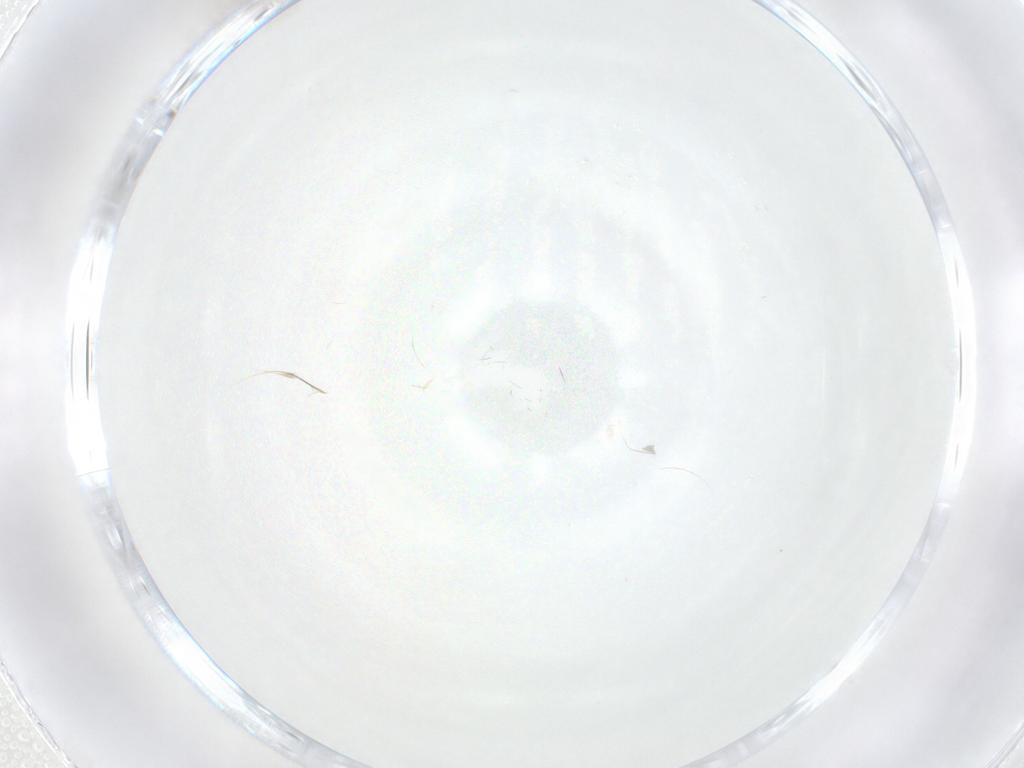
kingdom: Animalia
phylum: Arthropoda
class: Insecta
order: Diptera
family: Cecidomyiidae
